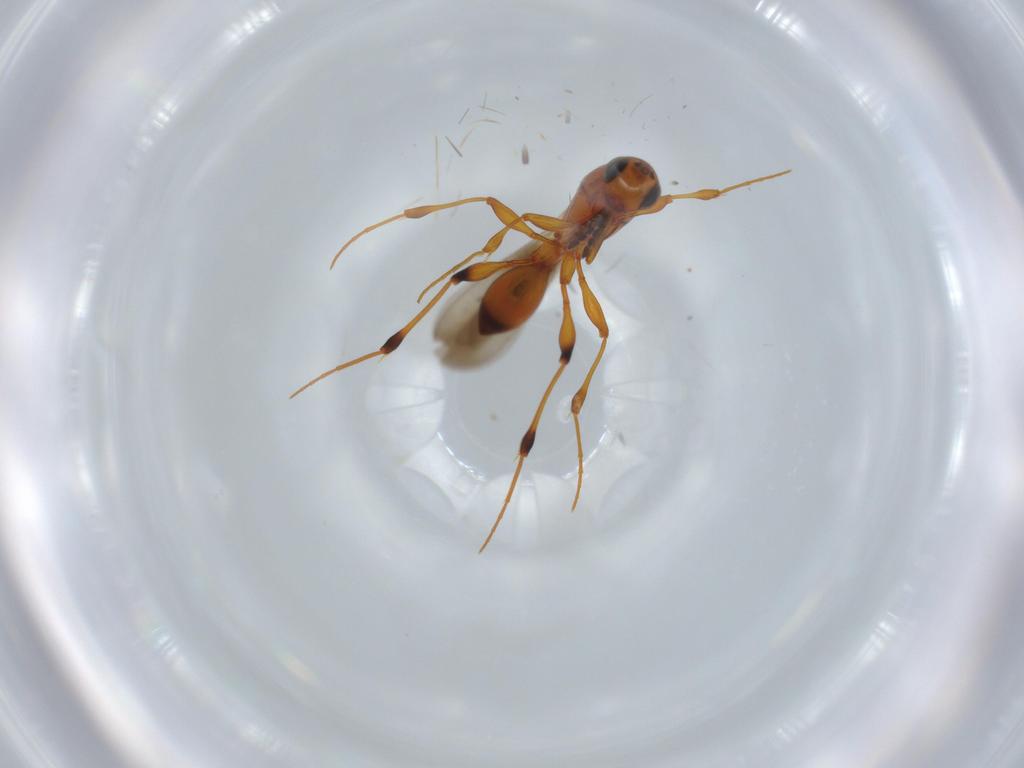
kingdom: Animalia
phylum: Arthropoda
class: Insecta
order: Hymenoptera
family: Platygastridae
